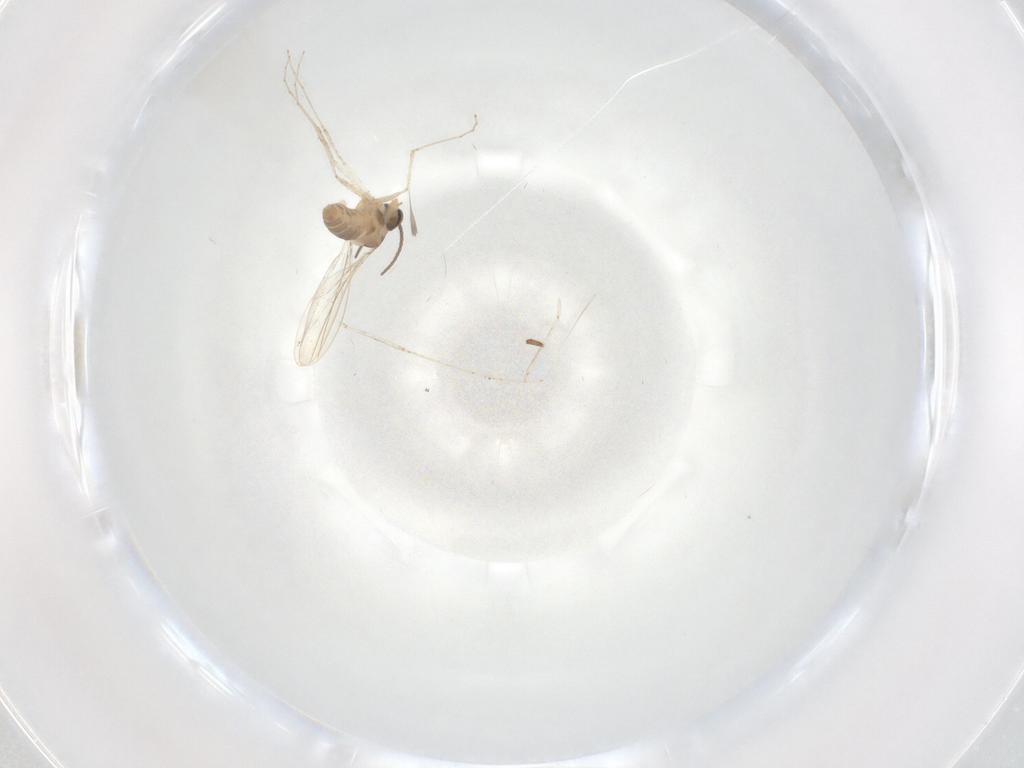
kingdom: Animalia
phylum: Arthropoda
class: Insecta
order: Diptera
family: Cecidomyiidae
